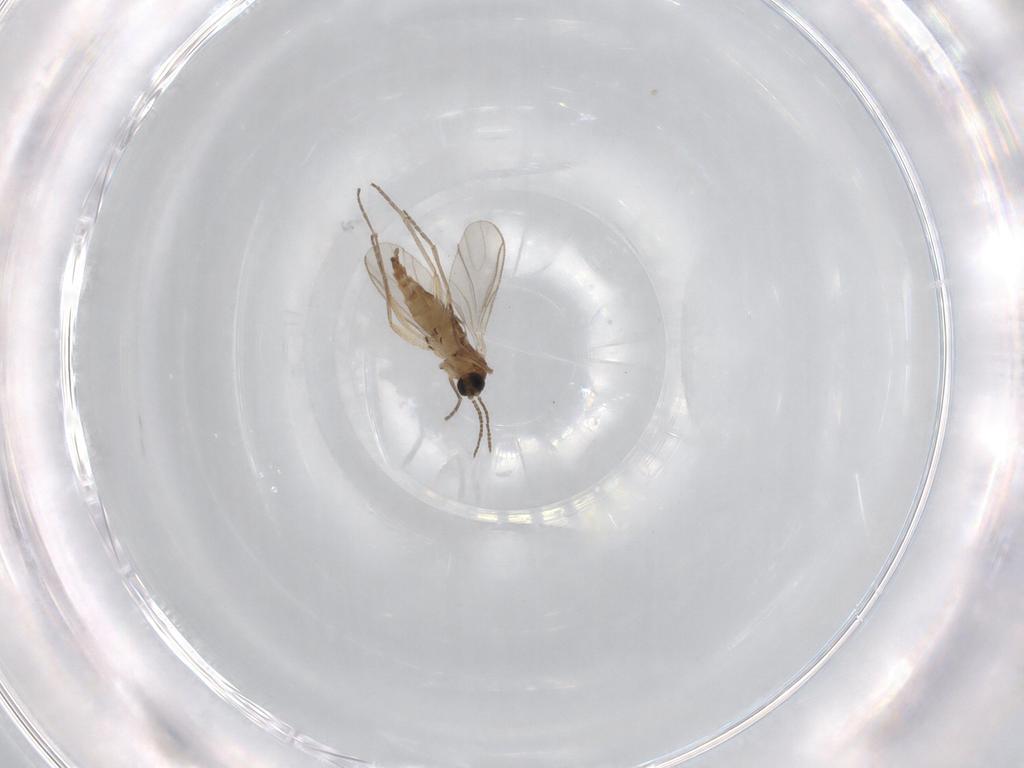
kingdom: Animalia
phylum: Arthropoda
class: Insecta
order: Diptera
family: Sciaridae
